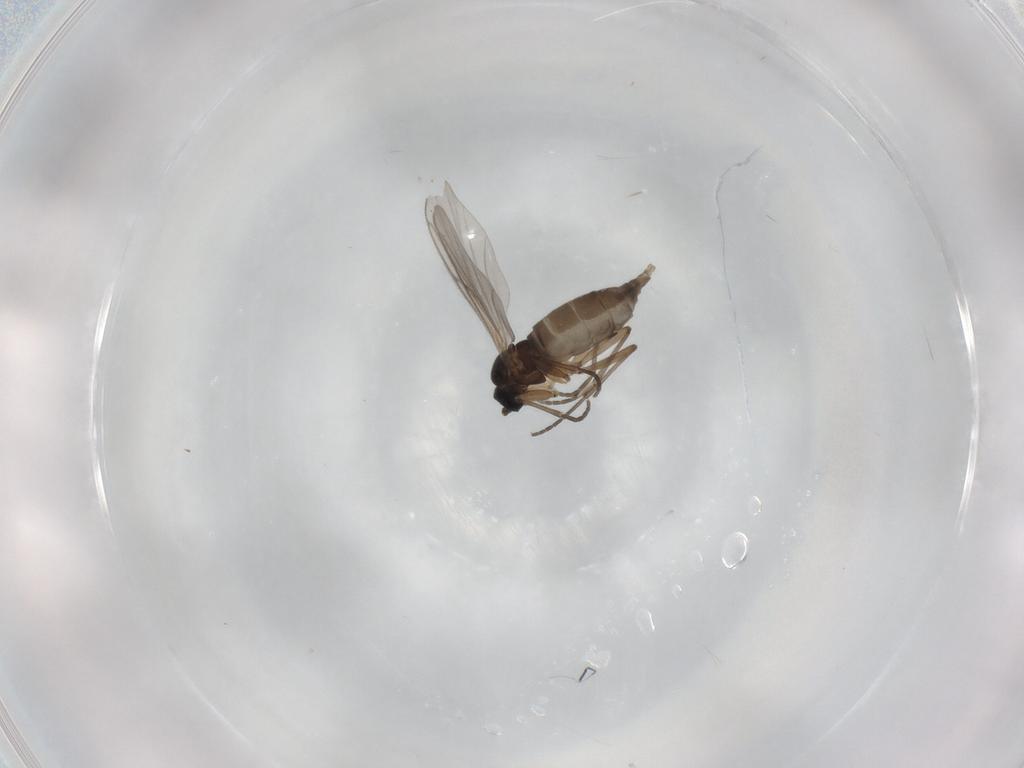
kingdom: Animalia
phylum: Arthropoda
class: Insecta
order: Diptera
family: Sciaridae
